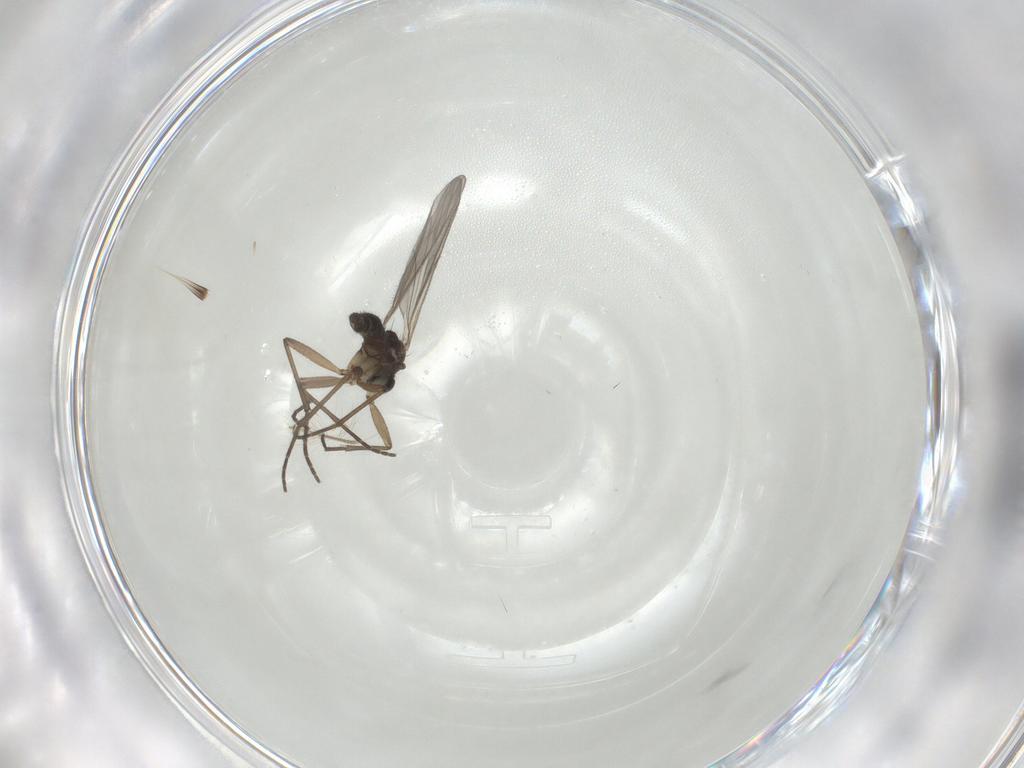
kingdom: Animalia
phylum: Arthropoda
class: Insecta
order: Diptera
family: Chironomidae
